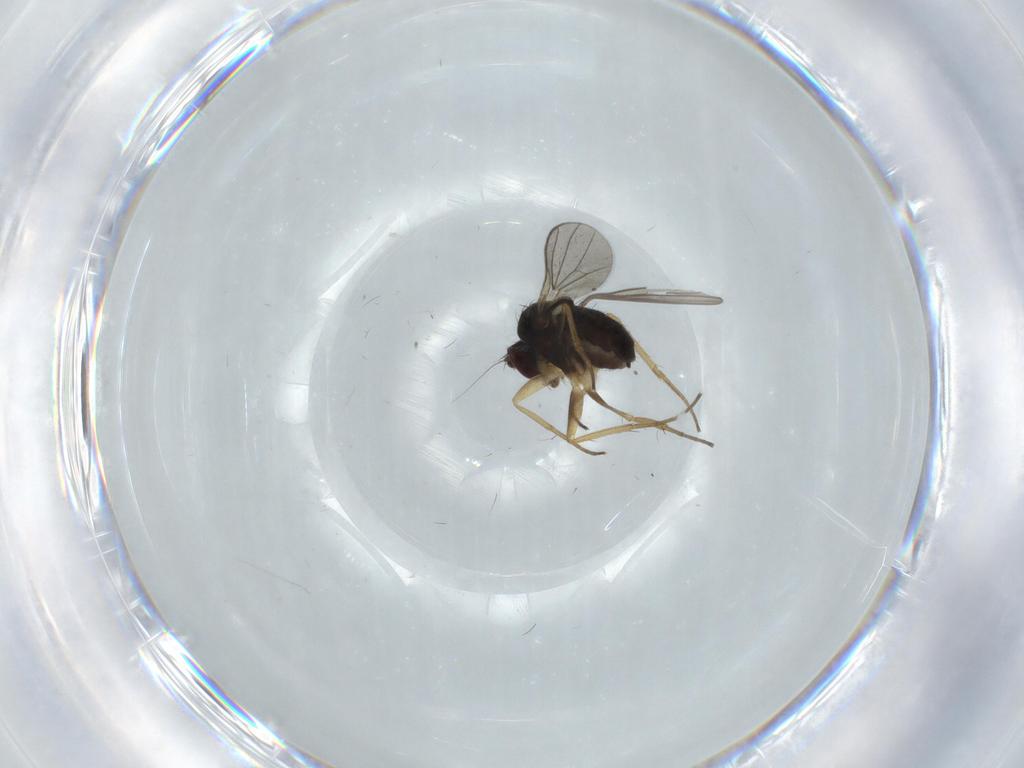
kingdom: Animalia
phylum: Arthropoda
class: Insecta
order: Diptera
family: Dolichopodidae
